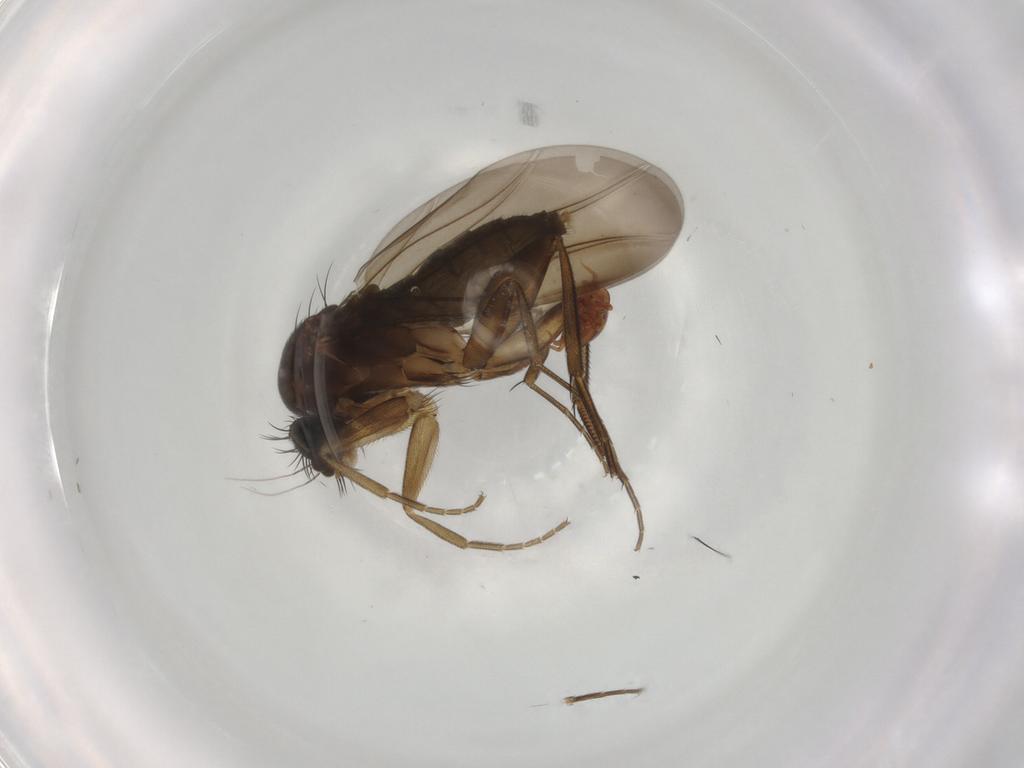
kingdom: Animalia
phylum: Arthropoda
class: Insecta
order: Diptera
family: Phoridae
